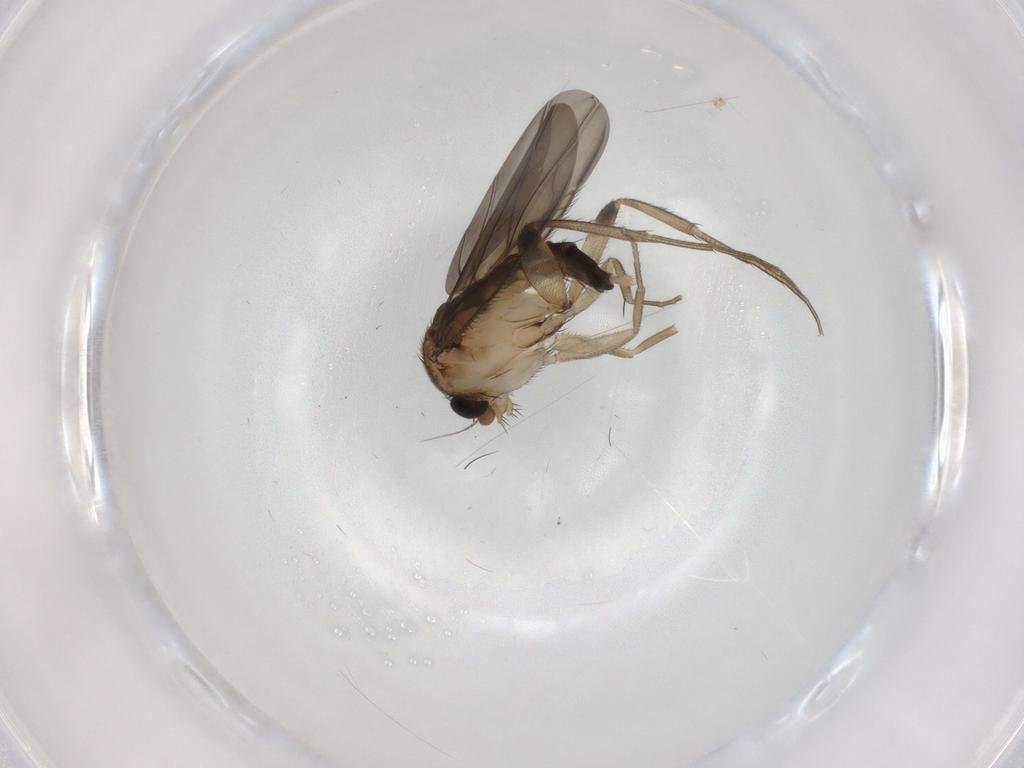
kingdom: Animalia
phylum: Arthropoda
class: Insecta
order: Diptera
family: Phoridae
